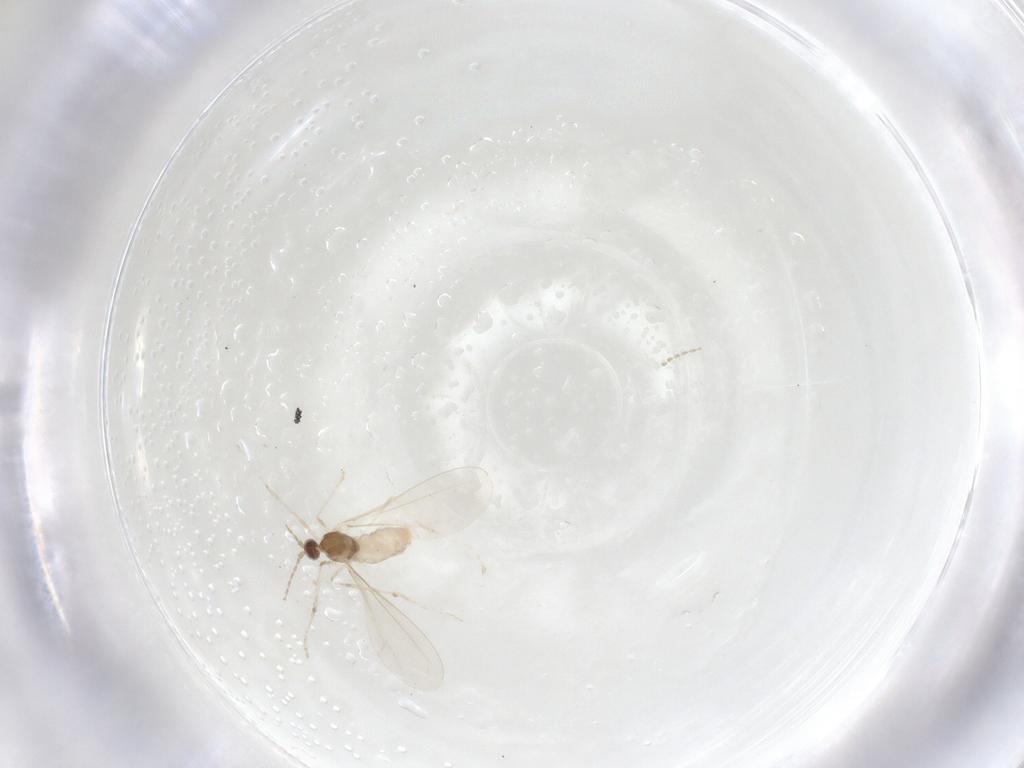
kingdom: Animalia
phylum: Arthropoda
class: Insecta
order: Diptera
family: Cecidomyiidae
